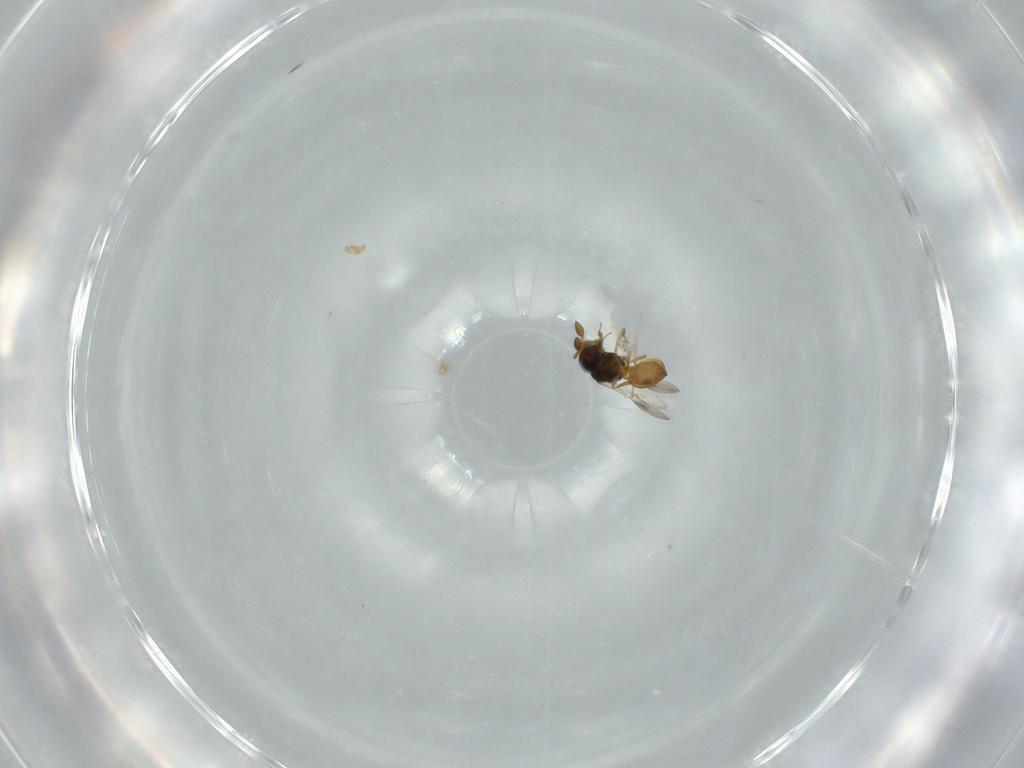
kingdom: Animalia
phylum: Arthropoda
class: Insecta
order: Hymenoptera
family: Scelionidae
